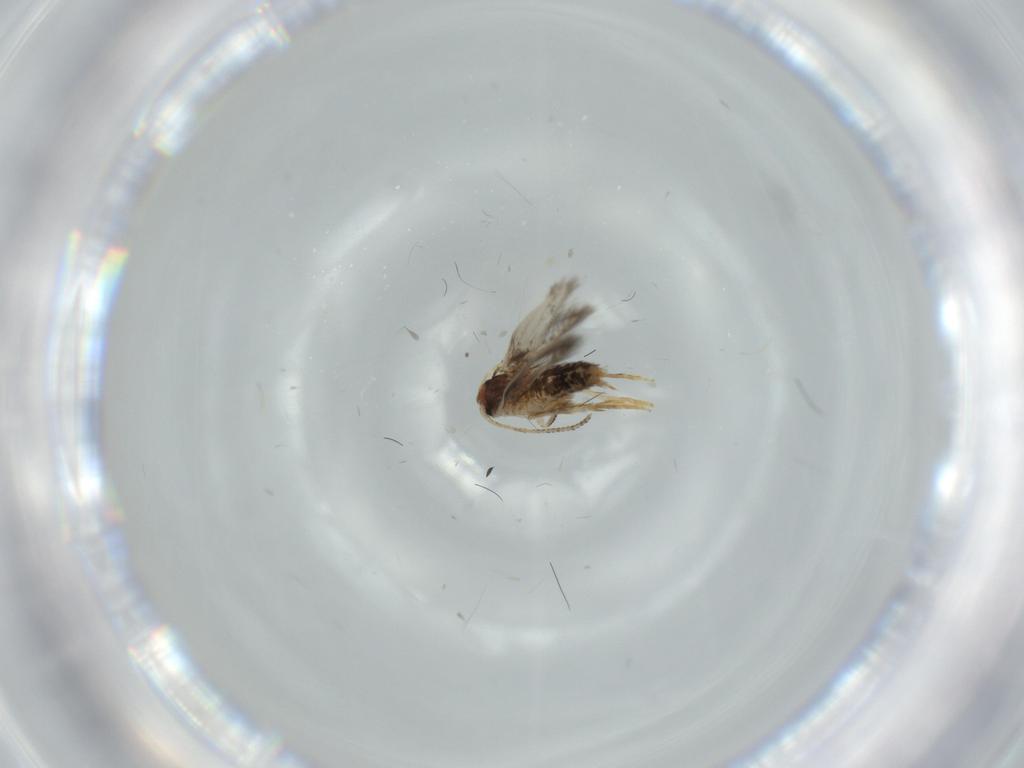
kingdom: Animalia
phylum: Arthropoda
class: Insecta
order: Lepidoptera
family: Nepticulidae
